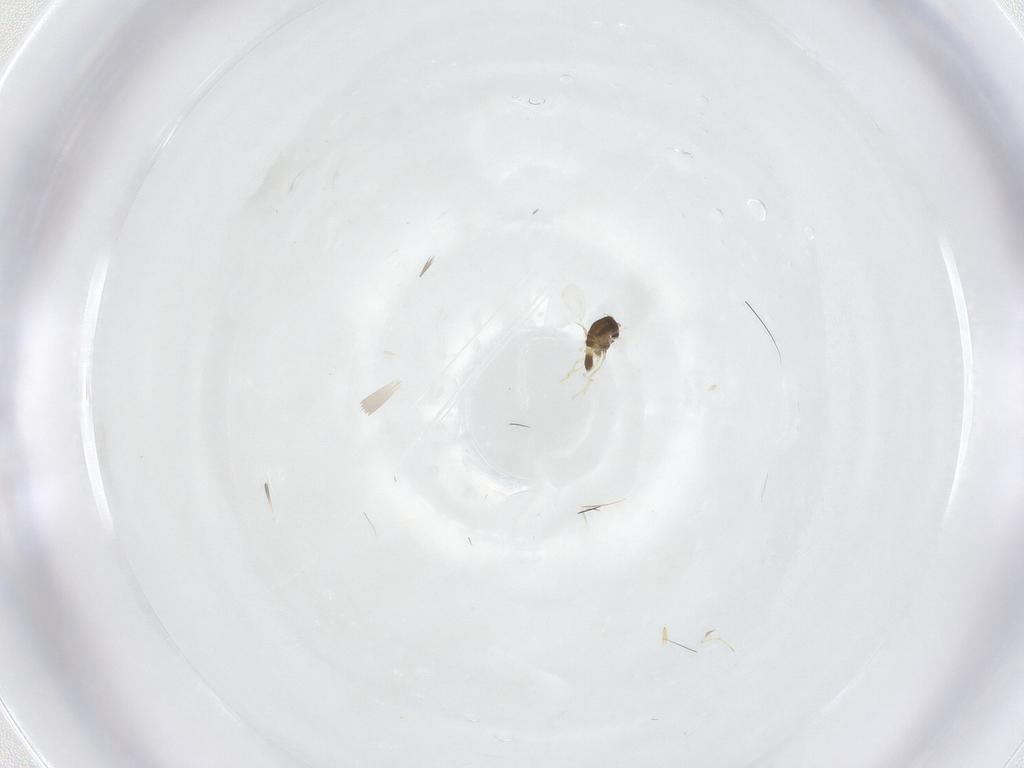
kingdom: Animalia
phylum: Arthropoda
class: Insecta
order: Diptera
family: Chironomidae
